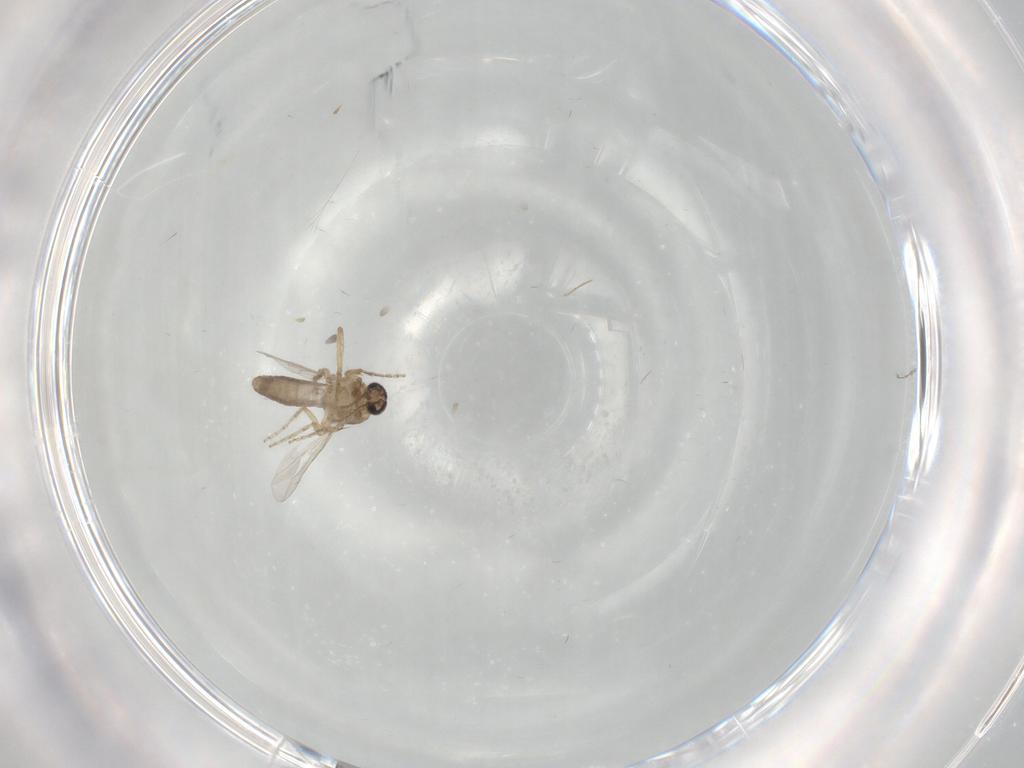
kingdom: Animalia
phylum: Arthropoda
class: Insecta
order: Diptera
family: Cecidomyiidae
